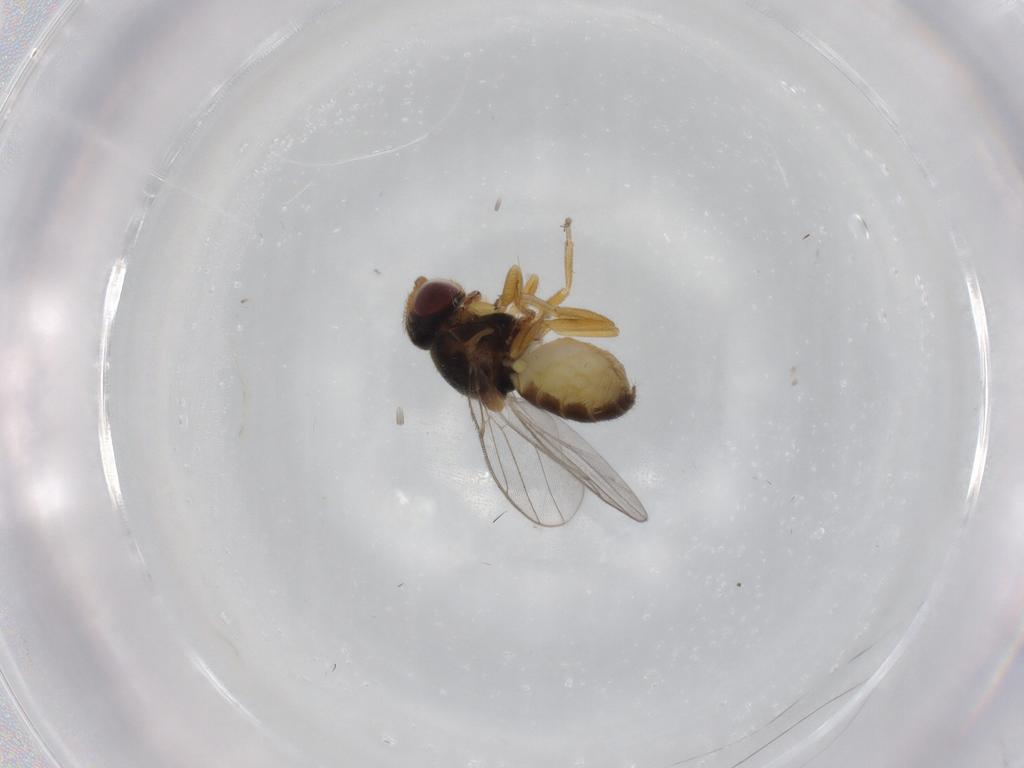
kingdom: Animalia
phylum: Arthropoda
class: Insecta
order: Diptera
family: Chloropidae
